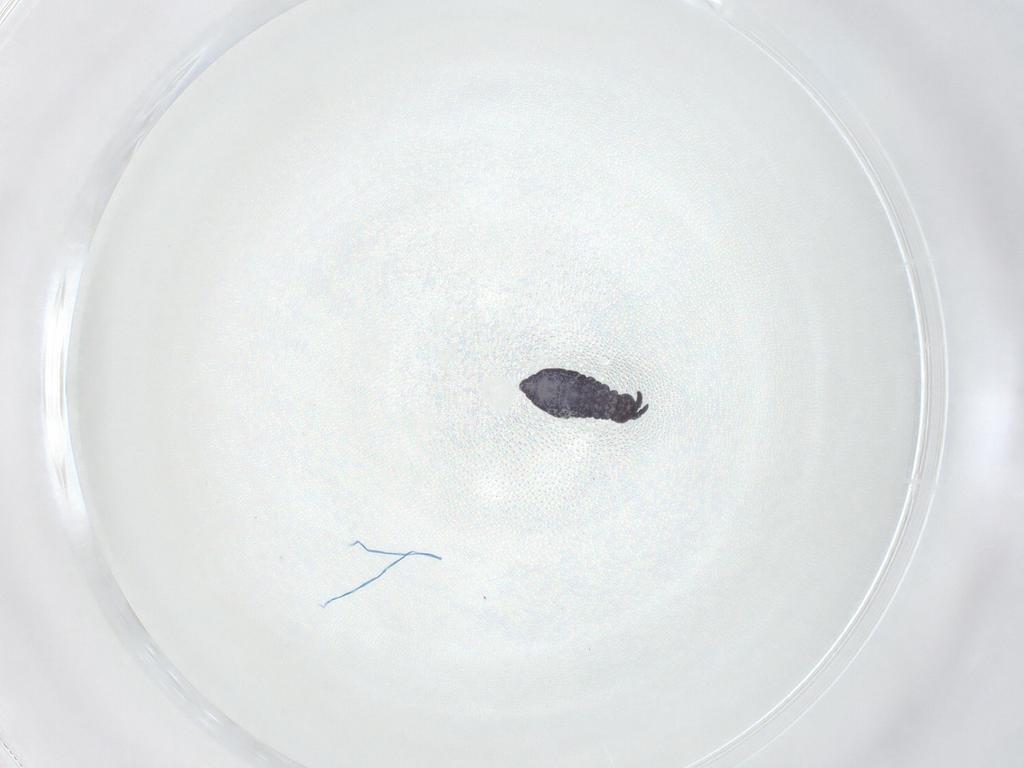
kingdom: Animalia
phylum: Arthropoda
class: Collembola
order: Poduromorpha
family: Brachystomellidae
